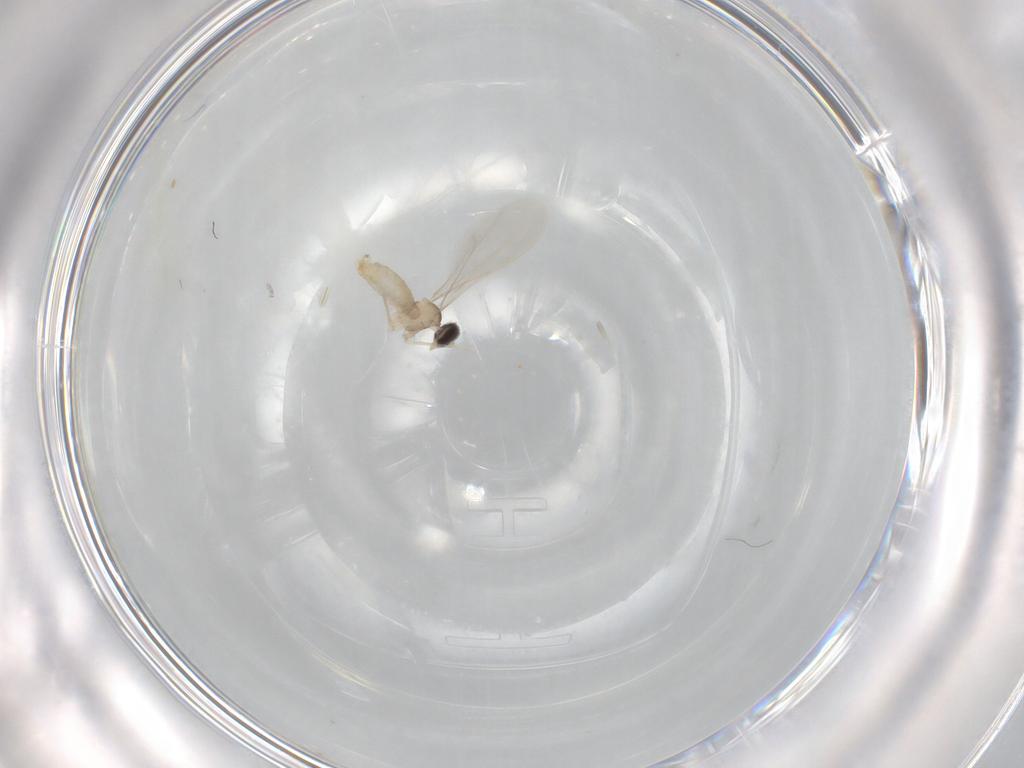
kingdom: Animalia
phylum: Arthropoda
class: Insecta
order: Diptera
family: Cecidomyiidae
